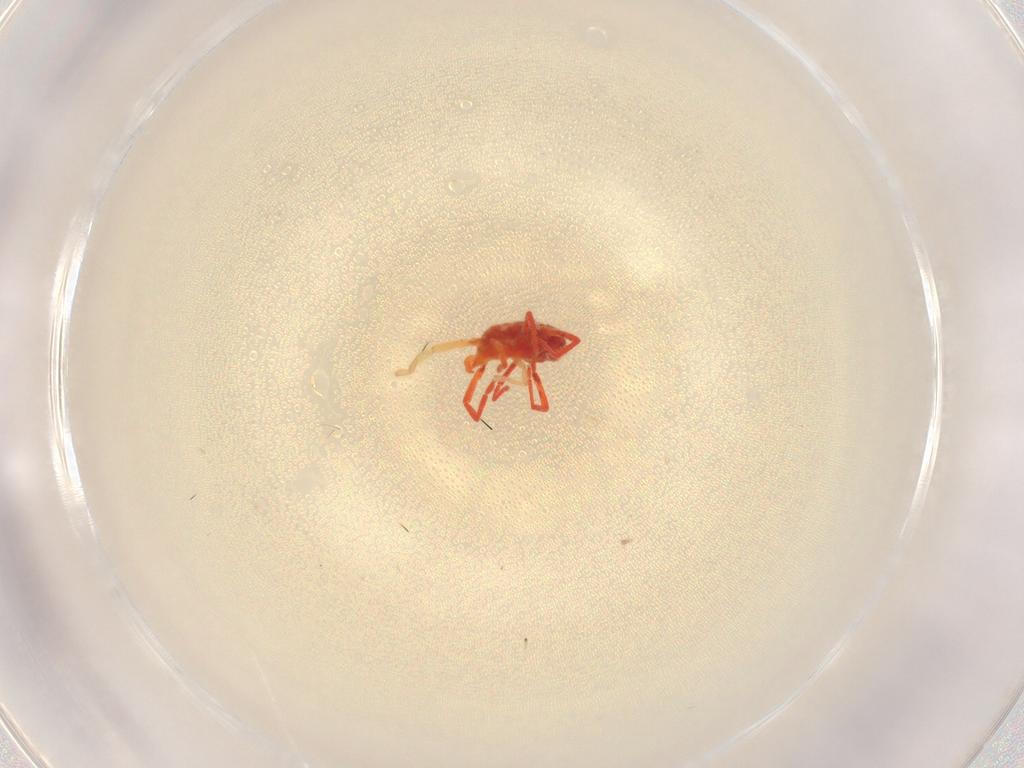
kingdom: Animalia
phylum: Arthropoda
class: Arachnida
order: Trombidiformes
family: Erythraeidae
